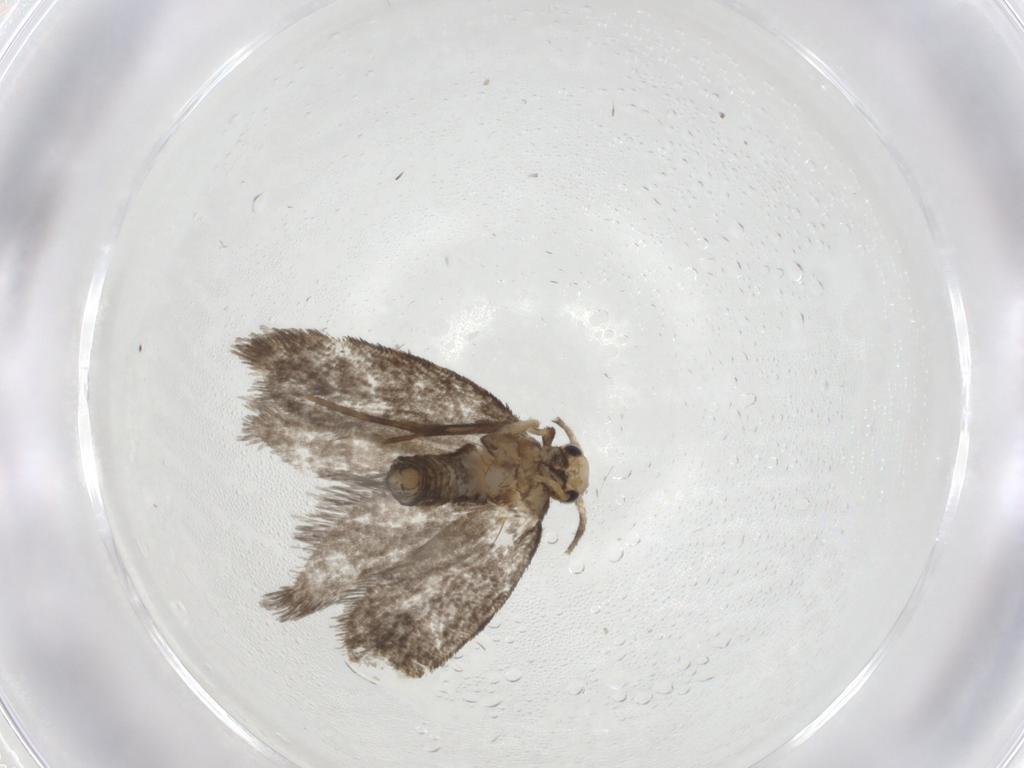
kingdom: Animalia
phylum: Arthropoda
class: Insecta
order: Lepidoptera
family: Psychidae
